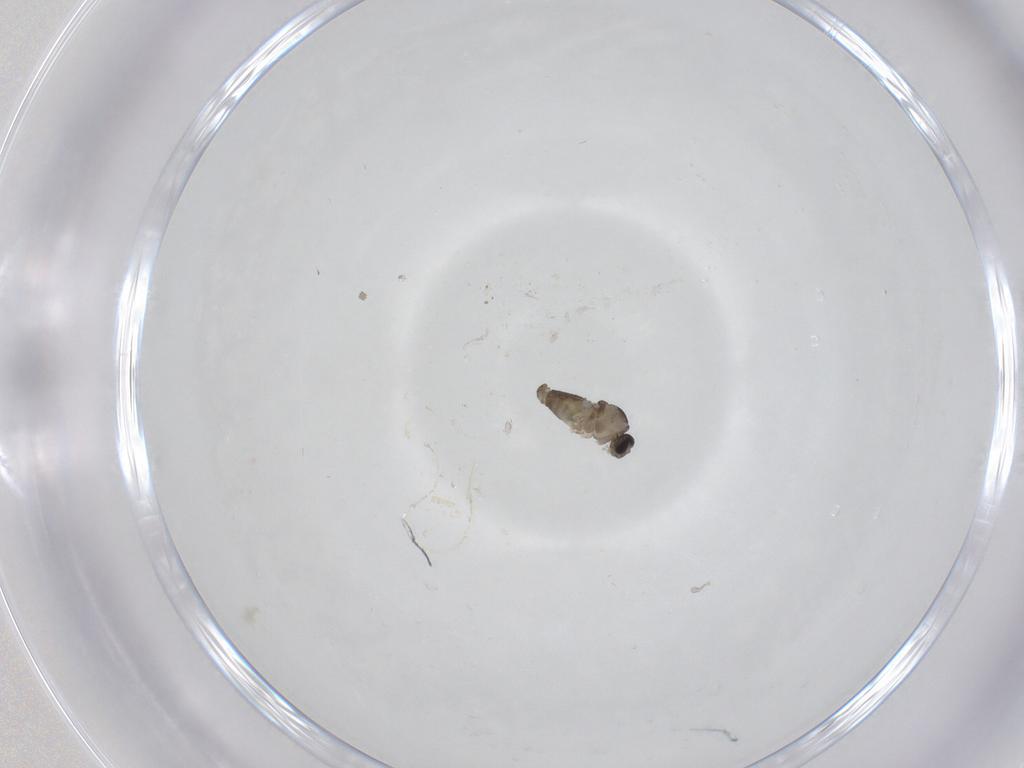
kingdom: Animalia
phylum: Arthropoda
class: Insecta
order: Diptera
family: Cecidomyiidae
